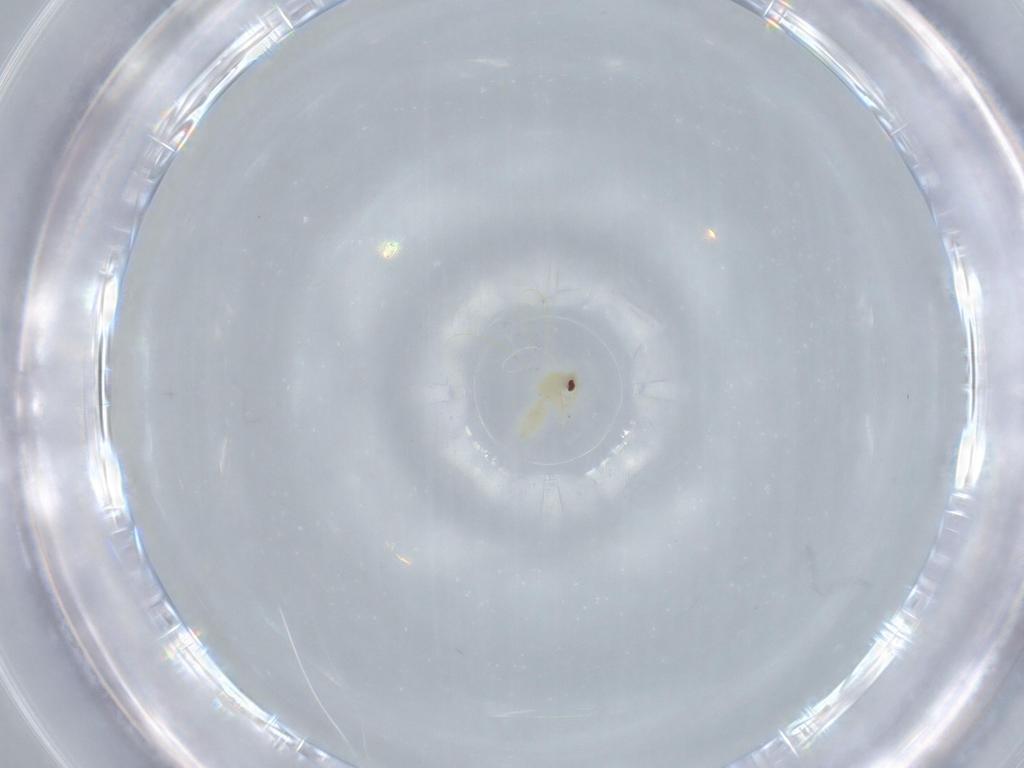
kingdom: Animalia
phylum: Arthropoda
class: Insecta
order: Hemiptera
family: Aleyrodidae
